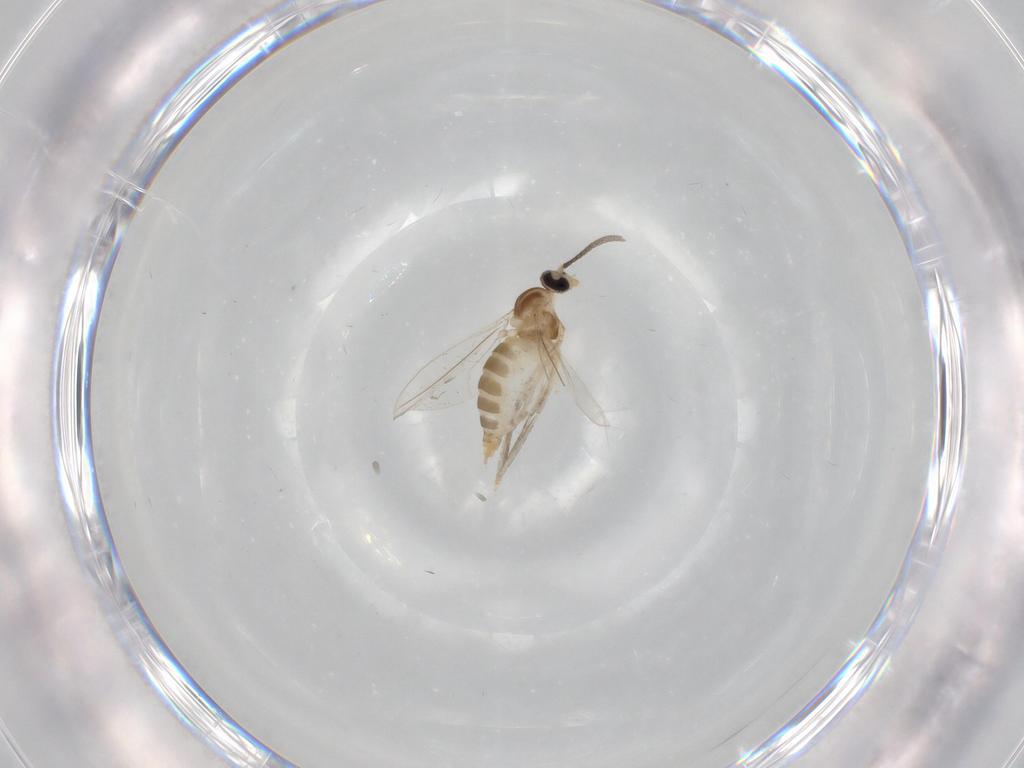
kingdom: Animalia
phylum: Arthropoda
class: Insecta
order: Diptera
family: Cecidomyiidae
